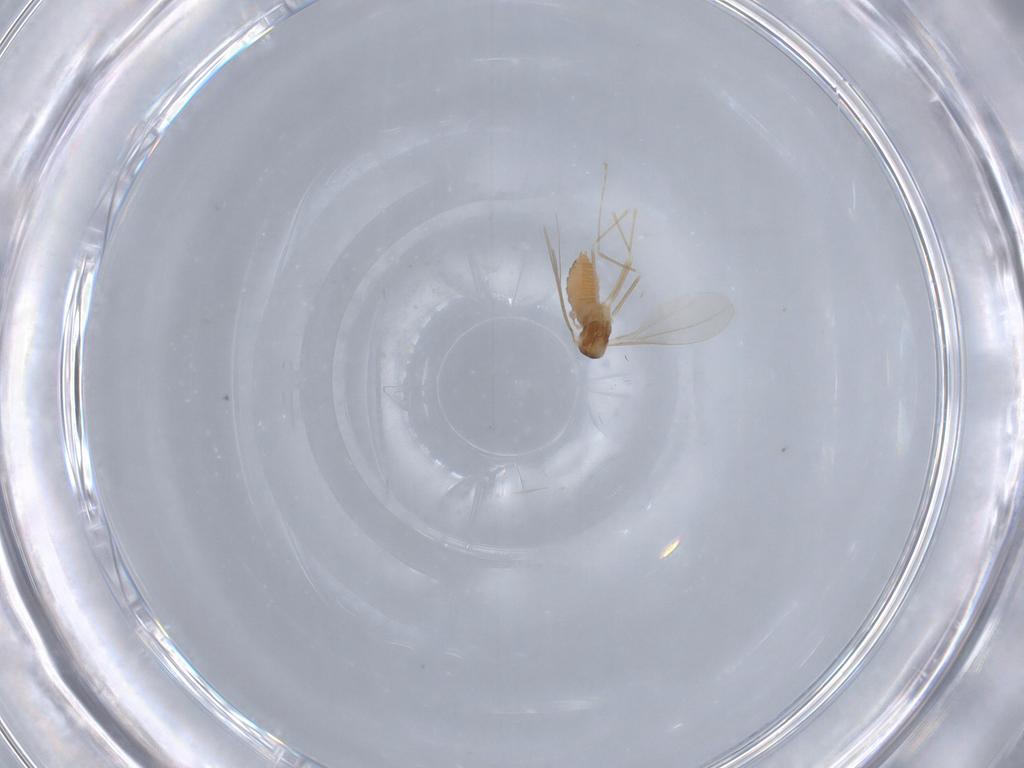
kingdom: Animalia
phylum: Arthropoda
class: Insecta
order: Diptera
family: Cecidomyiidae
